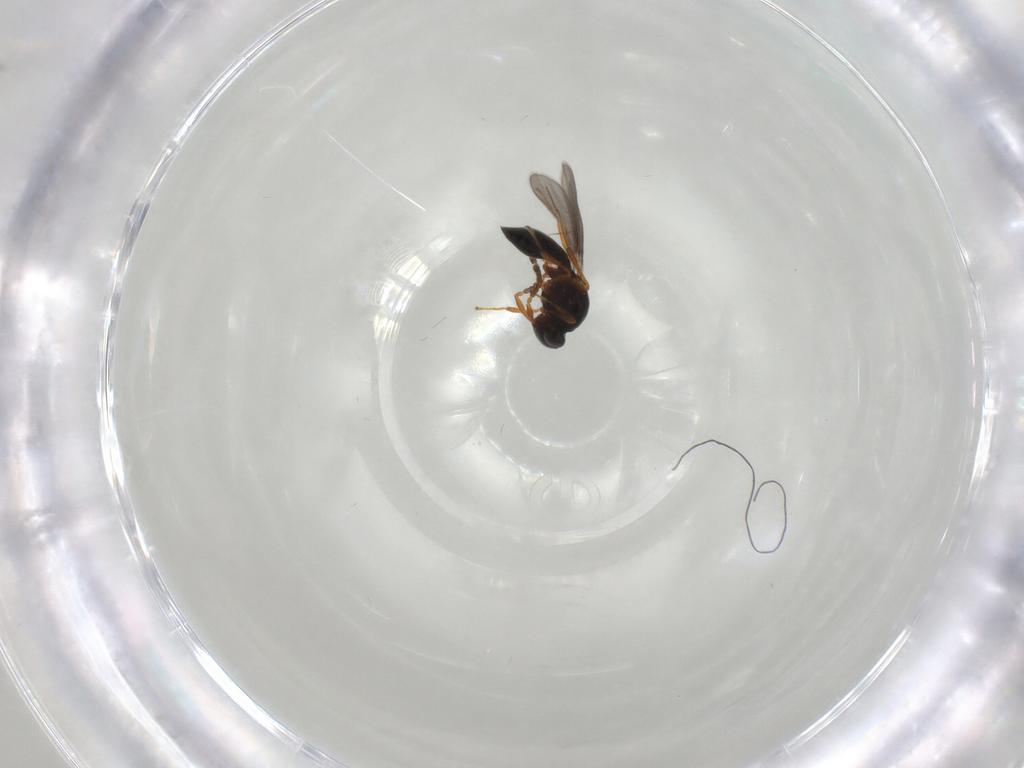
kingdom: Animalia
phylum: Arthropoda
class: Insecta
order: Hymenoptera
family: Platygastridae
